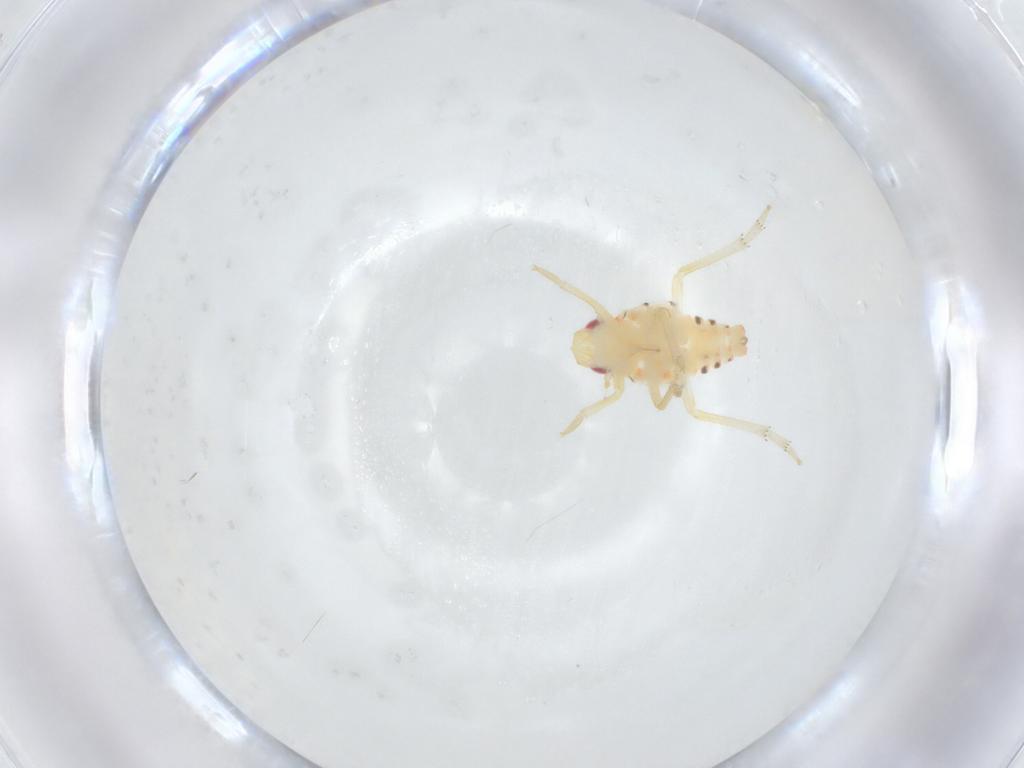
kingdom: Animalia
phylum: Arthropoda
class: Insecta
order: Hemiptera
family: Tropiduchidae
